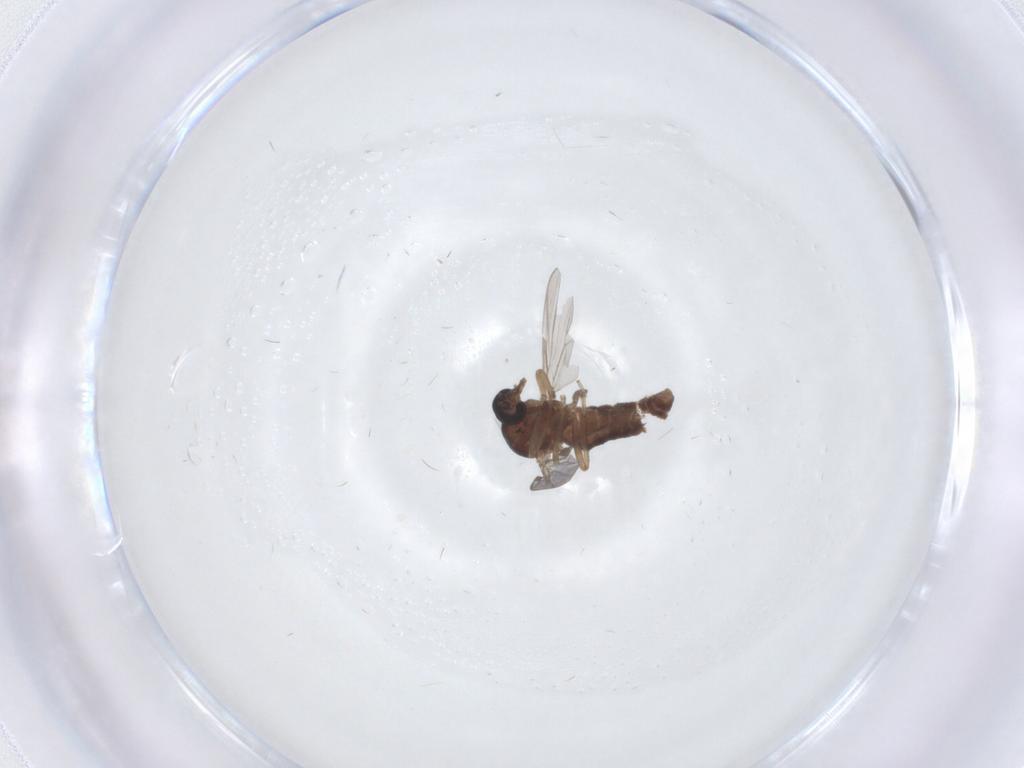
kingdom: Animalia
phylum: Arthropoda
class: Insecta
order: Diptera
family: Ceratopogonidae
